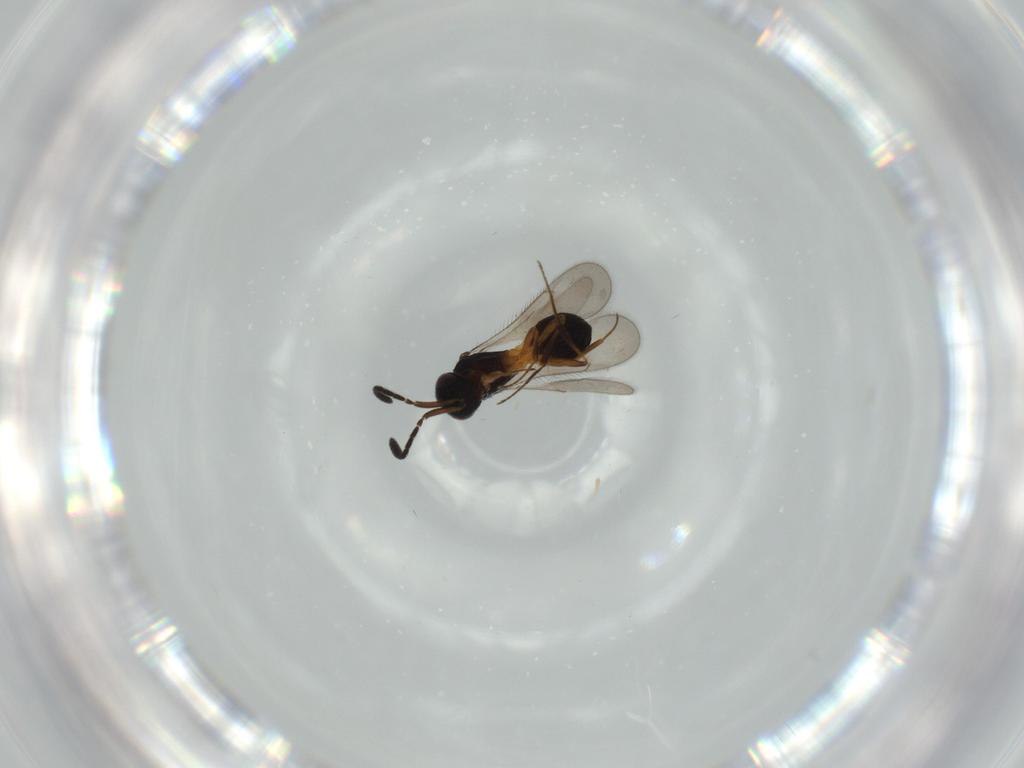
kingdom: Animalia
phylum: Arthropoda
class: Insecta
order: Hymenoptera
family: Scelionidae
